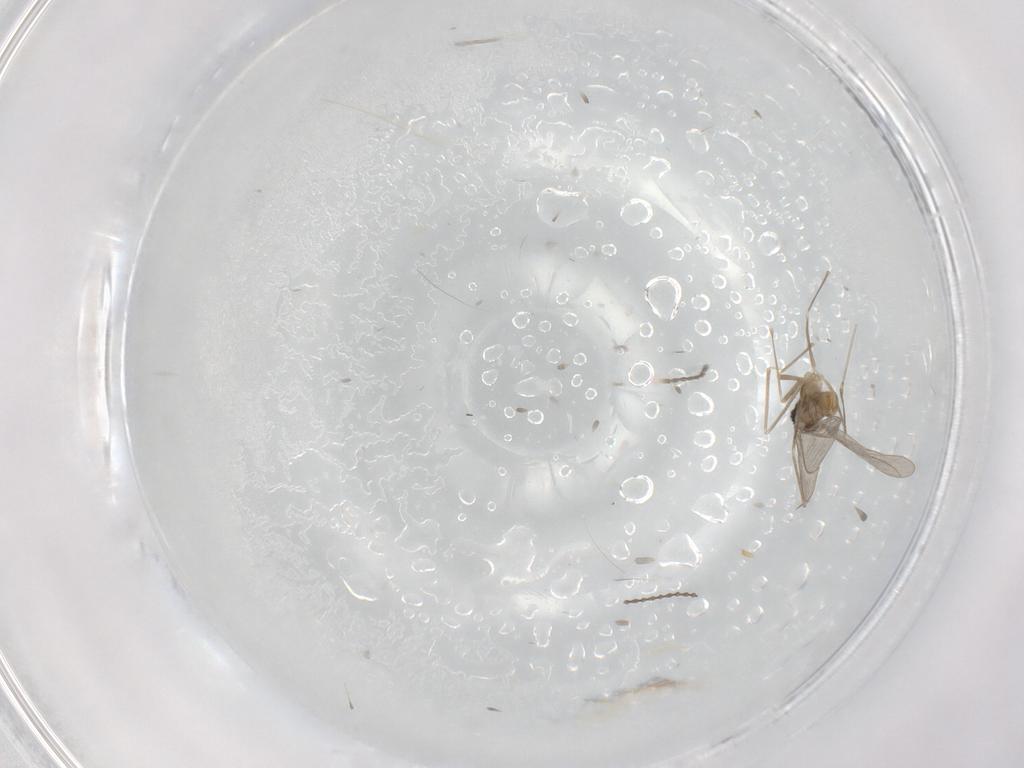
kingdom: Animalia
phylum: Arthropoda
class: Insecta
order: Diptera
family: Cecidomyiidae
